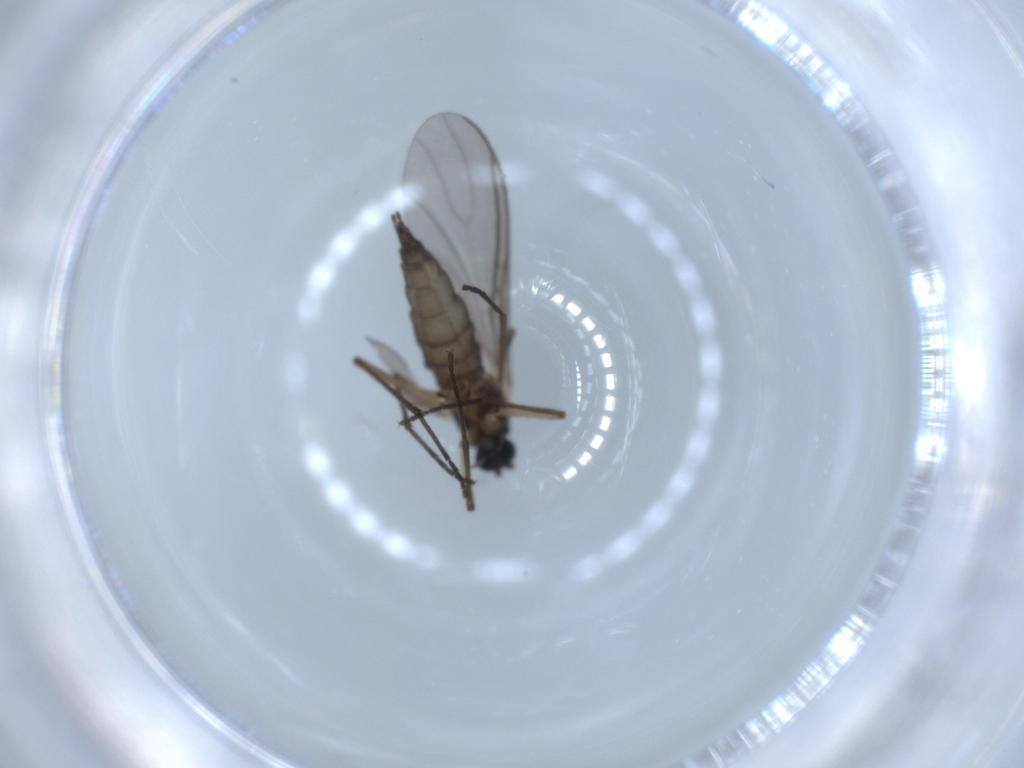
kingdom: Animalia
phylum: Arthropoda
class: Insecta
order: Diptera
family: Sciaridae
